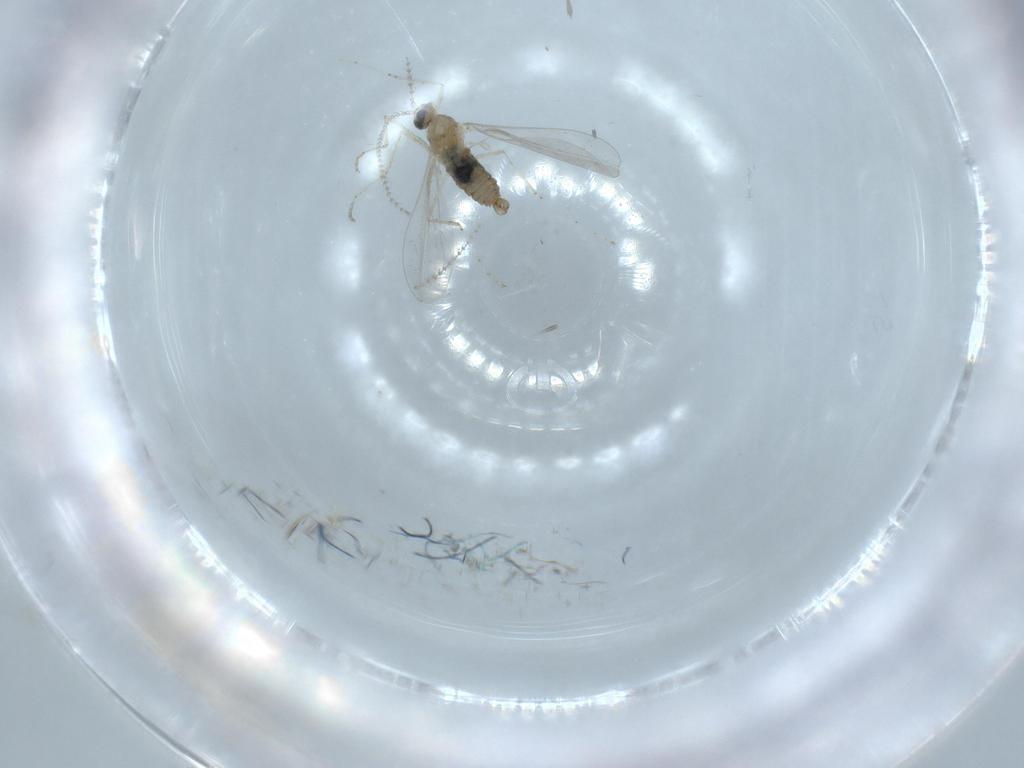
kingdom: Animalia
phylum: Arthropoda
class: Insecta
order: Diptera
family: Cecidomyiidae
